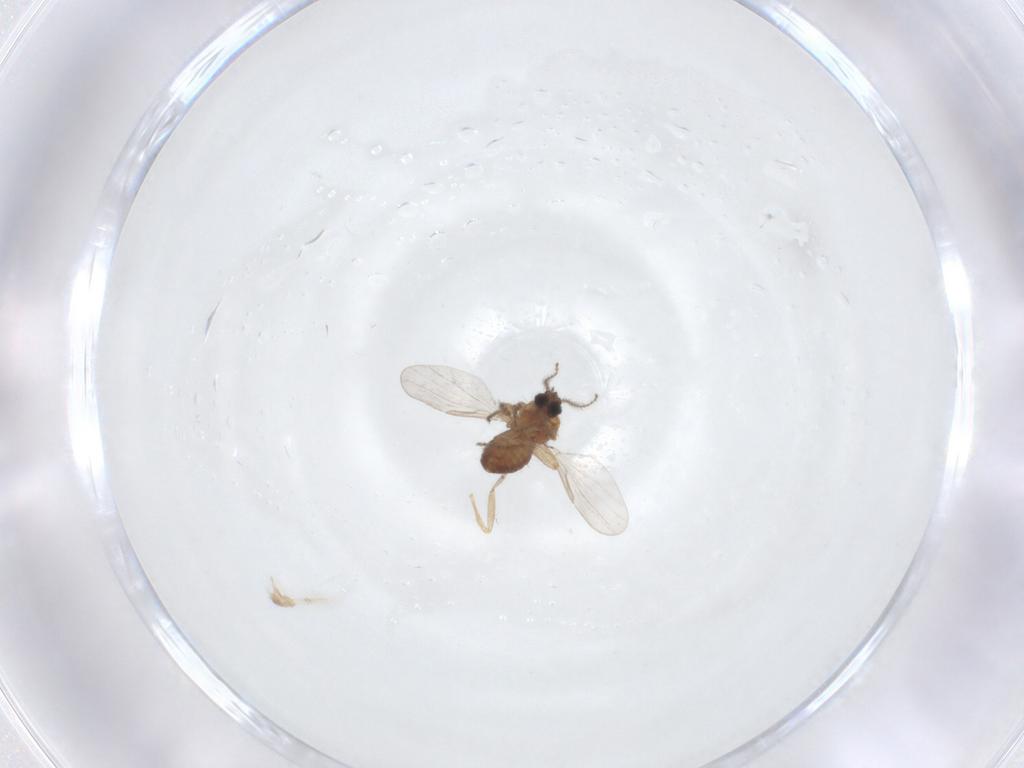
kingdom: Animalia
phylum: Arthropoda
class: Insecta
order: Diptera
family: Ceratopogonidae
